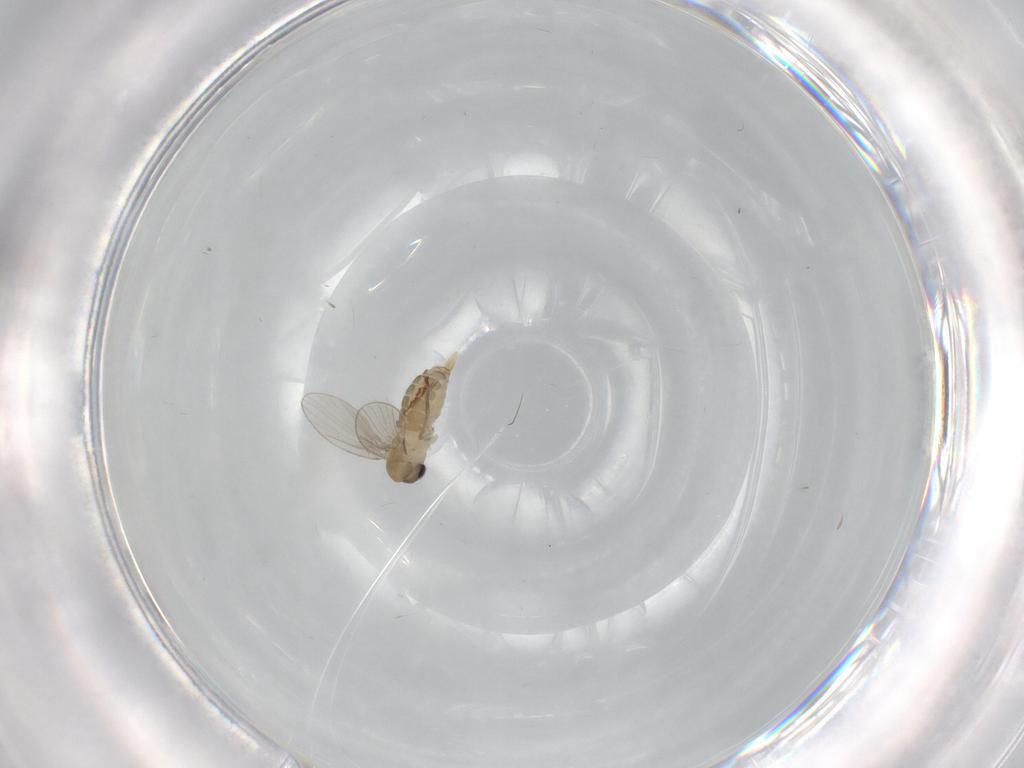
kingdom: Animalia
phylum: Arthropoda
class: Insecta
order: Diptera
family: Psychodidae
